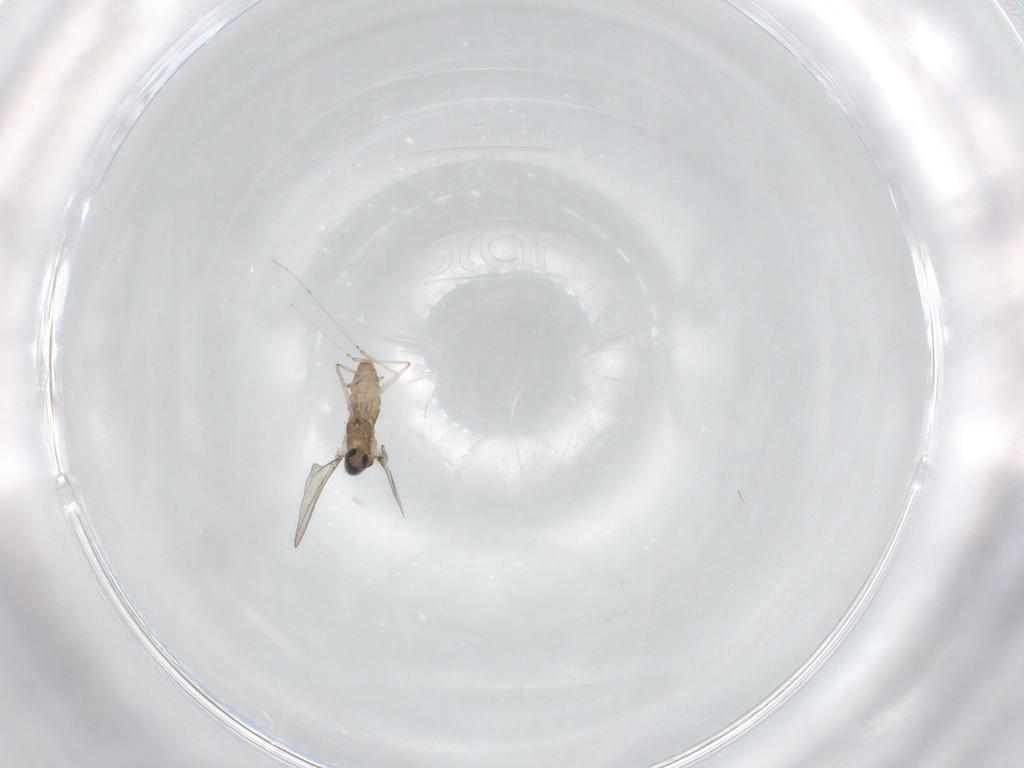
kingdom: Animalia
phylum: Arthropoda
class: Insecta
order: Diptera
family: Cecidomyiidae
